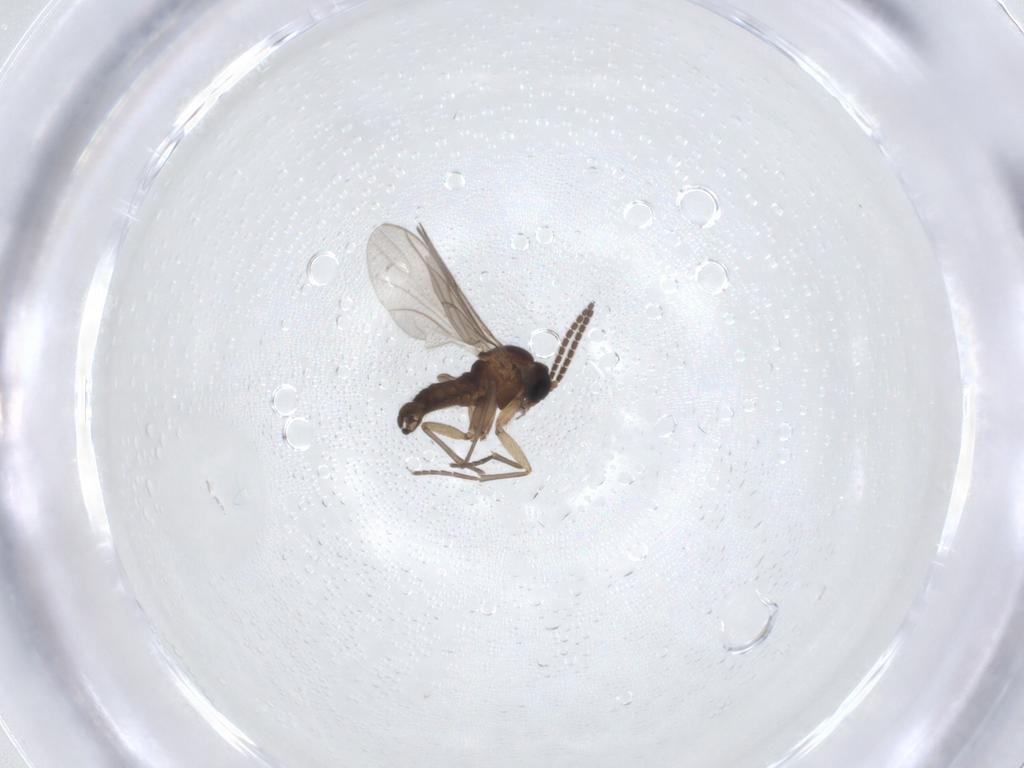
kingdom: Animalia
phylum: Arthropoda
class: Insecta
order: Diptera
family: Sciaridae
